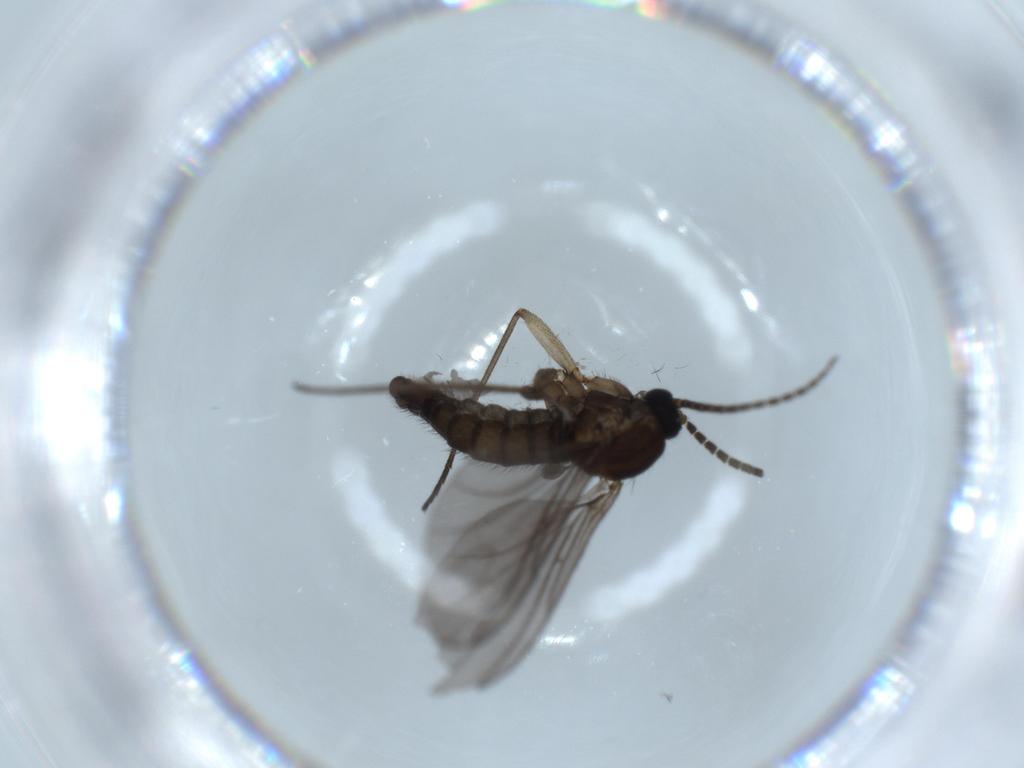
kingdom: Animalia
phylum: Arthropoda
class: Insecta
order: Diptera
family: Sciaridae
